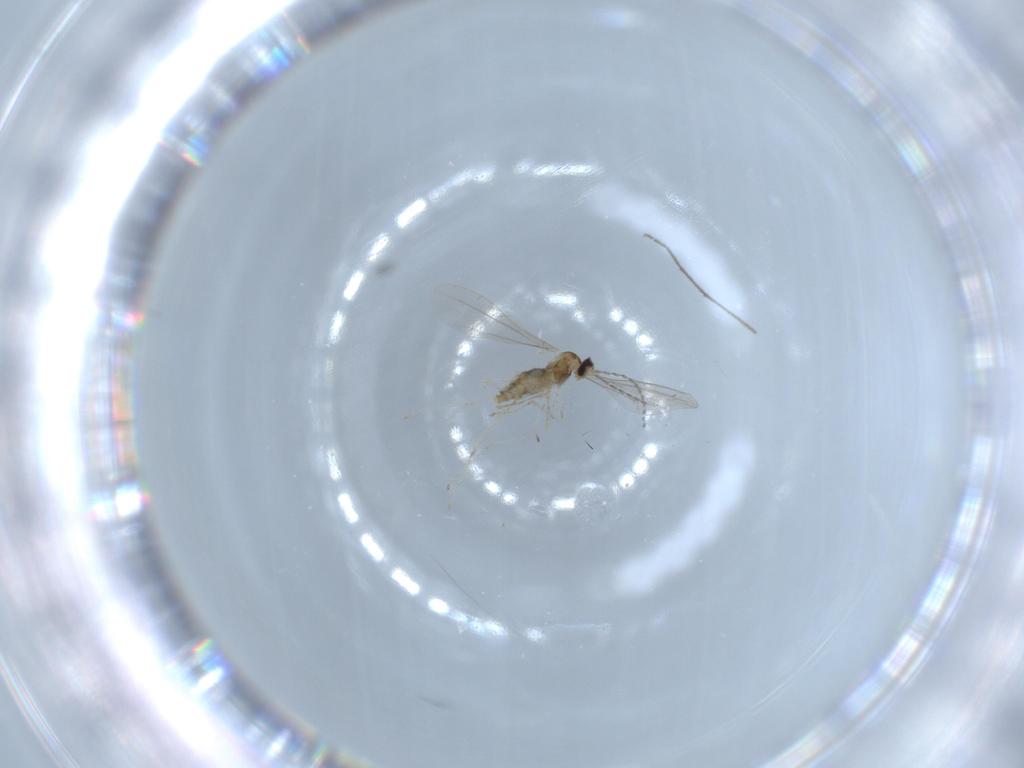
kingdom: Animalia
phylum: Arthropoda
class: Insecta
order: Diptera
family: Cecidomyiidae
